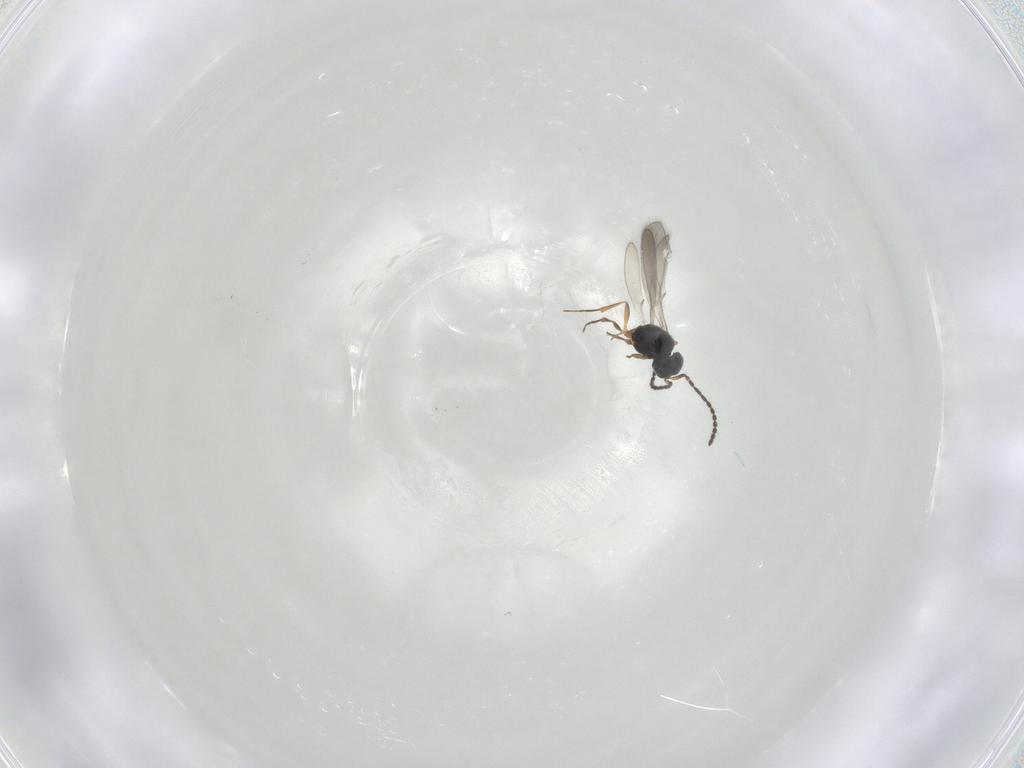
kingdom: Animalia
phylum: Arthropoda
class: Insecta
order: Hymenoptera
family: Scelionidae
